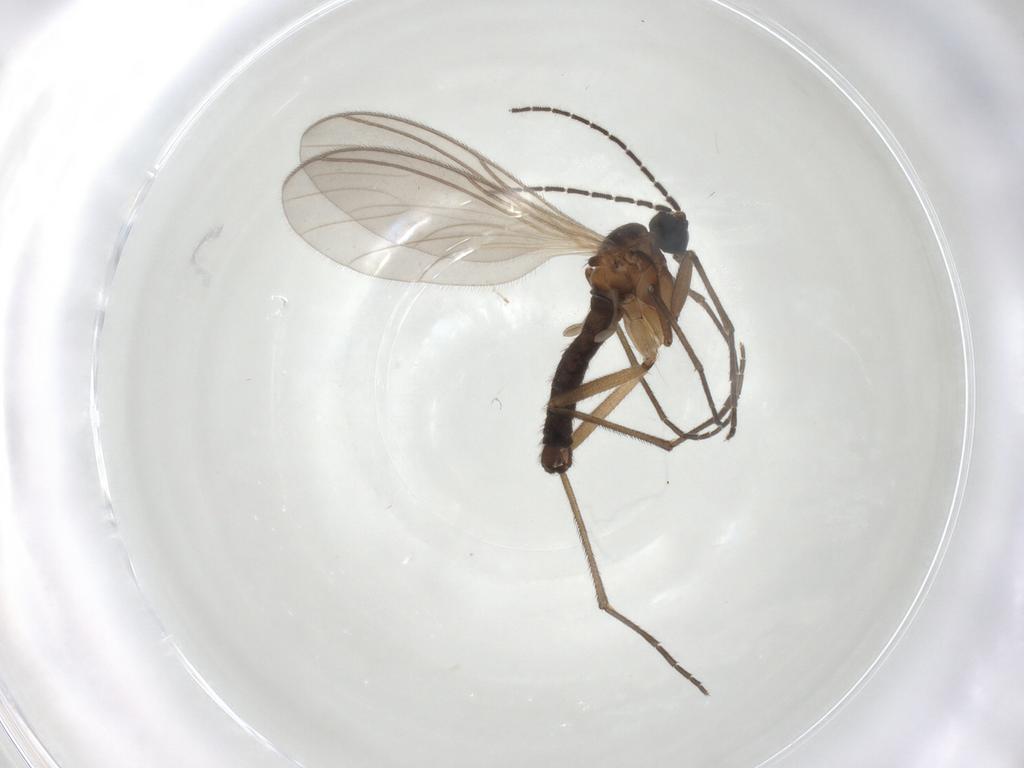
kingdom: Animalia
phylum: Arthropoda
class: Insecta
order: Diptera
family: Sciaridae
